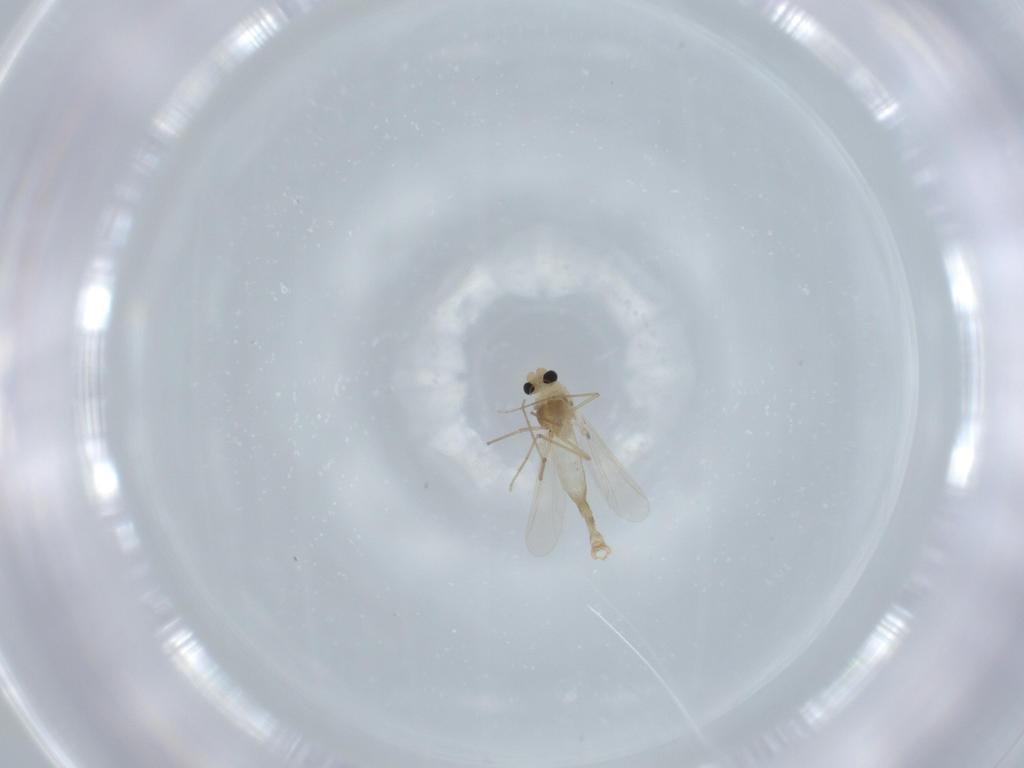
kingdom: Animalia
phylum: Arthropoda
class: Insecta
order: Diptera
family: Chironomidae
